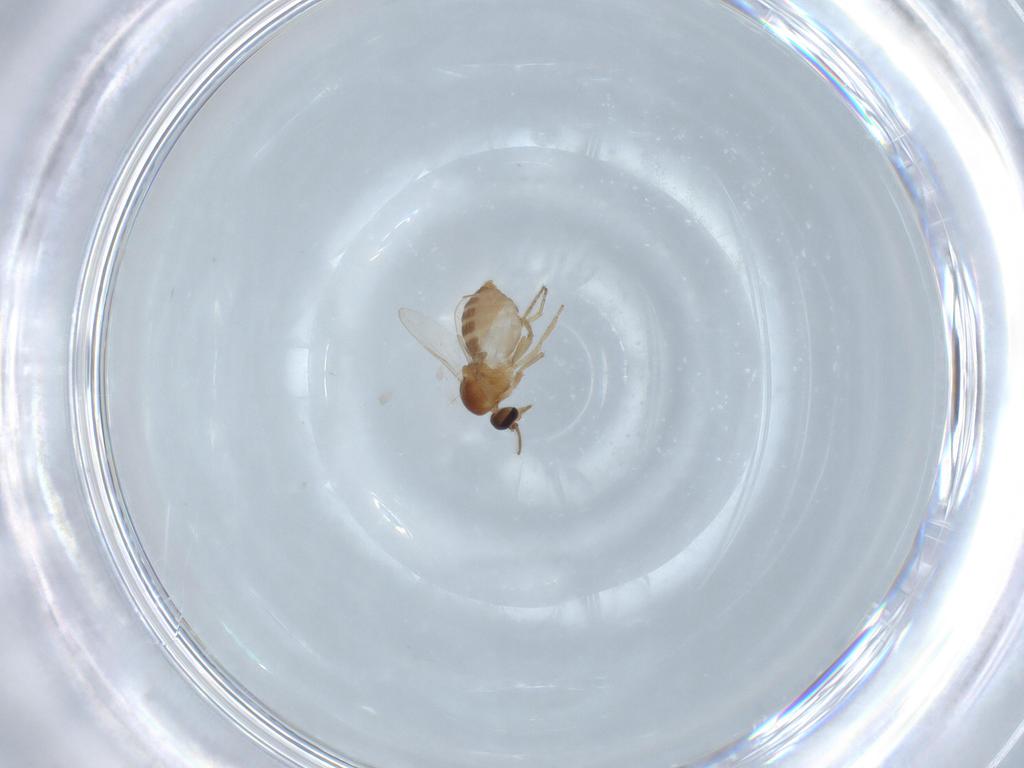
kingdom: Animalia
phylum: Arthropoda
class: Insecta
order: Diptera
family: Ceratopogonidae
